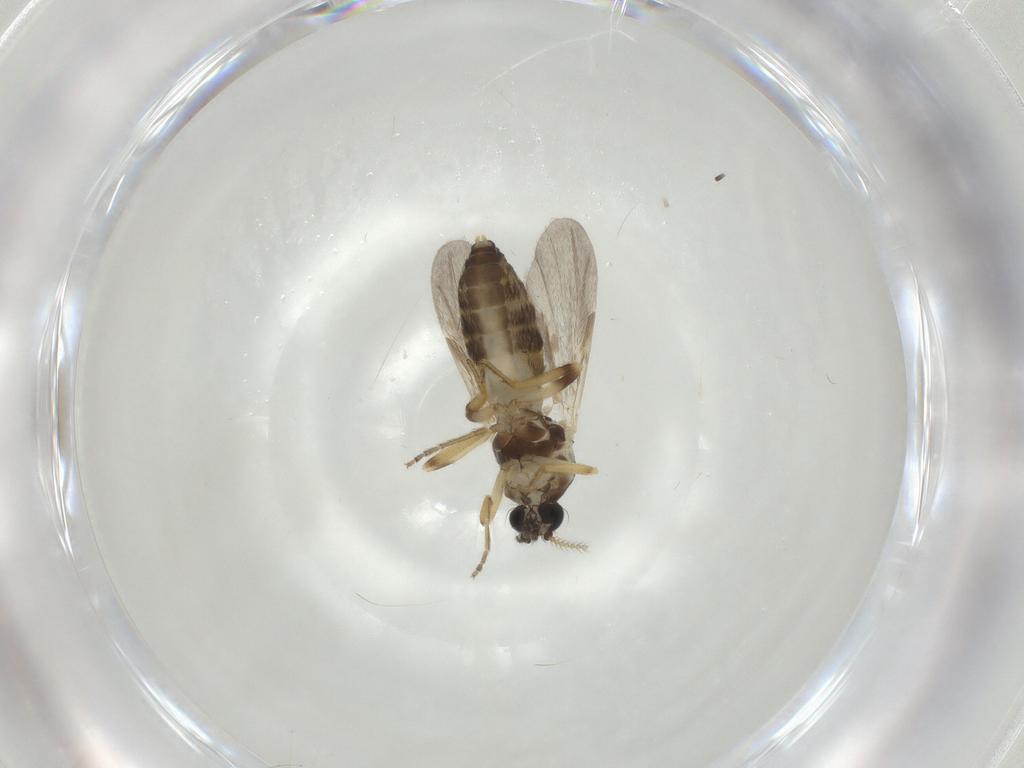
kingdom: Animalia
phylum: Arthropoda
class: Insecta
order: Diptera
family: Ceratopogonidae
